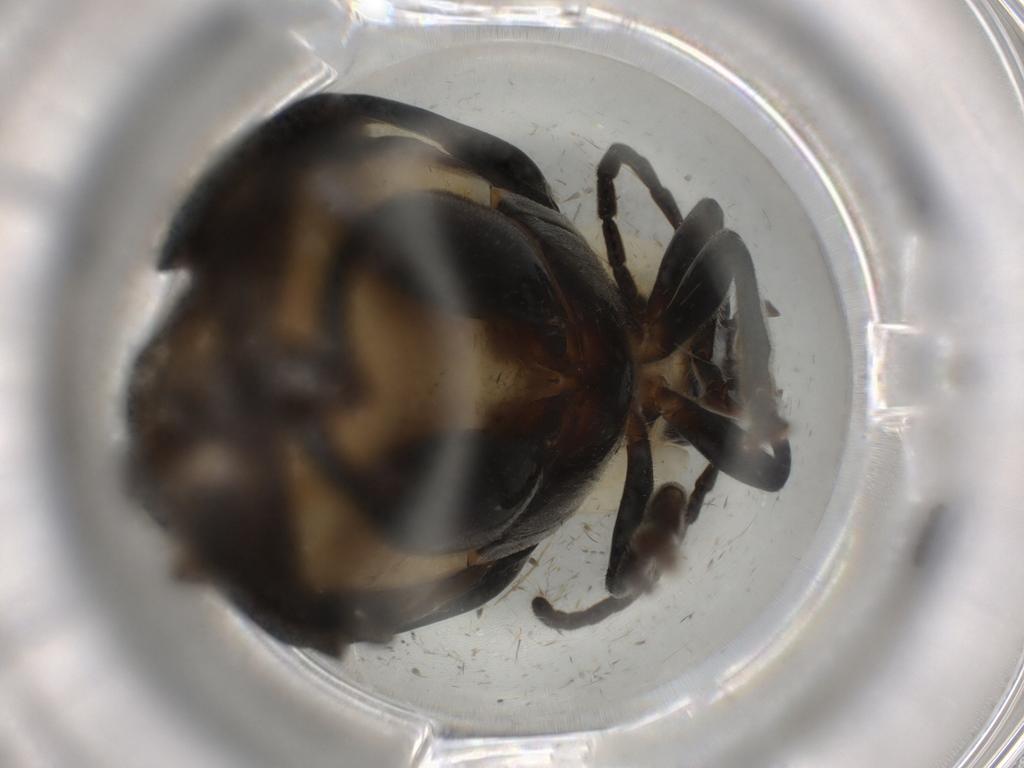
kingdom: Animalia
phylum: Arthropoda
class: Insecta
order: Coleoptera
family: Chrysomelidae
